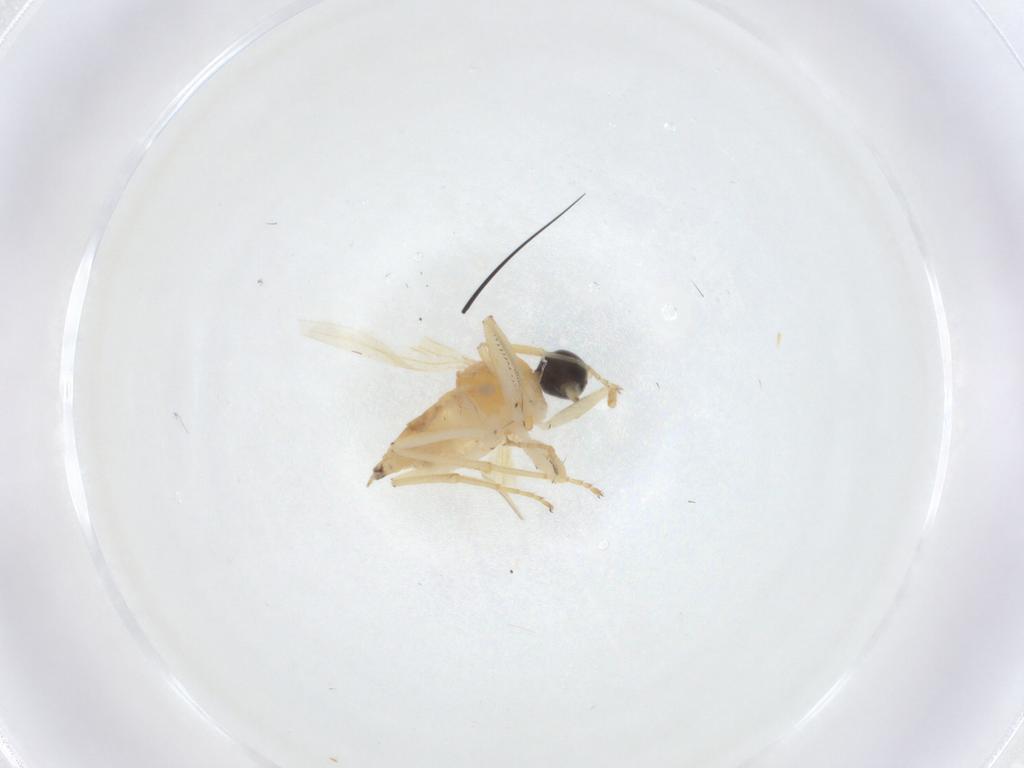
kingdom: Animalia
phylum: Arthropoda
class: Insecta
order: Diptera
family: Hybotidae
